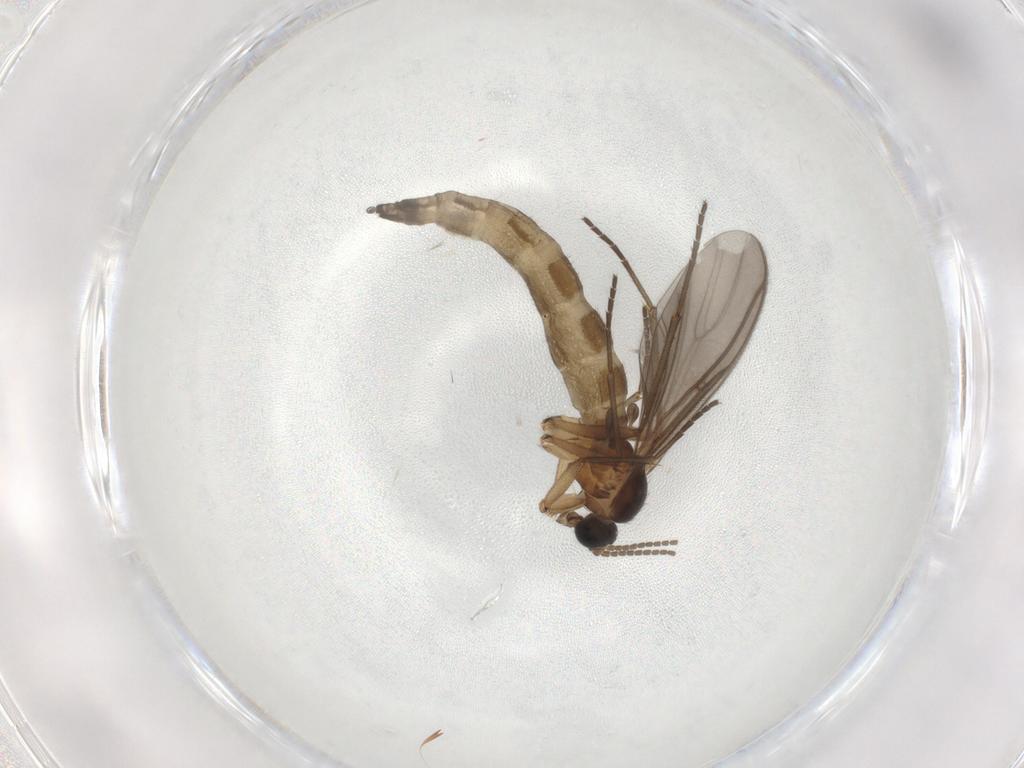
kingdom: Animalia
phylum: Arthropoda
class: Insecta
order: Diptera
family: Sciaridae
